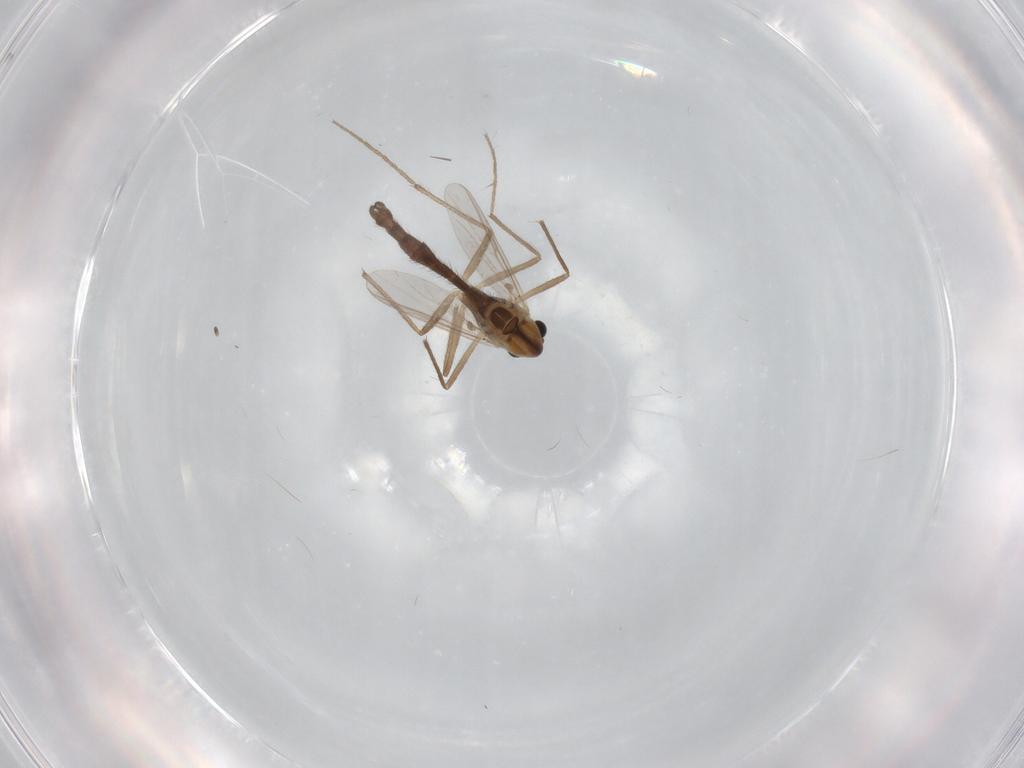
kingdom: Animalia
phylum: Arthropoda
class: Insecta
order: Diptera
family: Chironomidae
